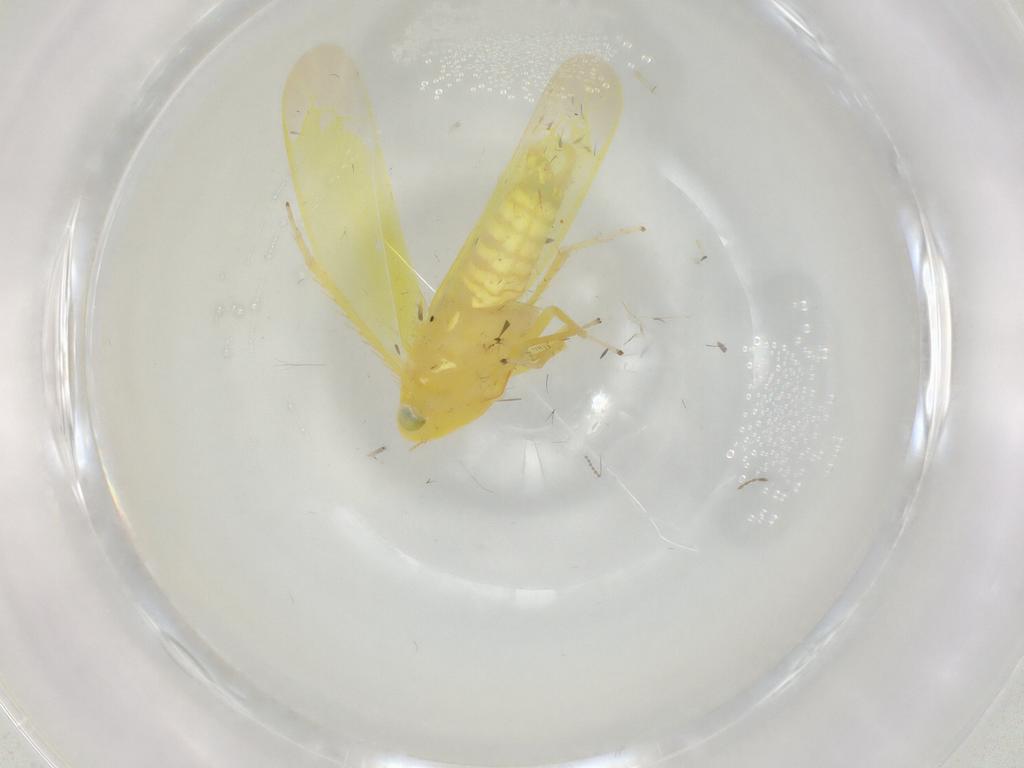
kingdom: Animalia
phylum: Arthropoda
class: Insecta
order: Hemiptera
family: Cicadellidae
